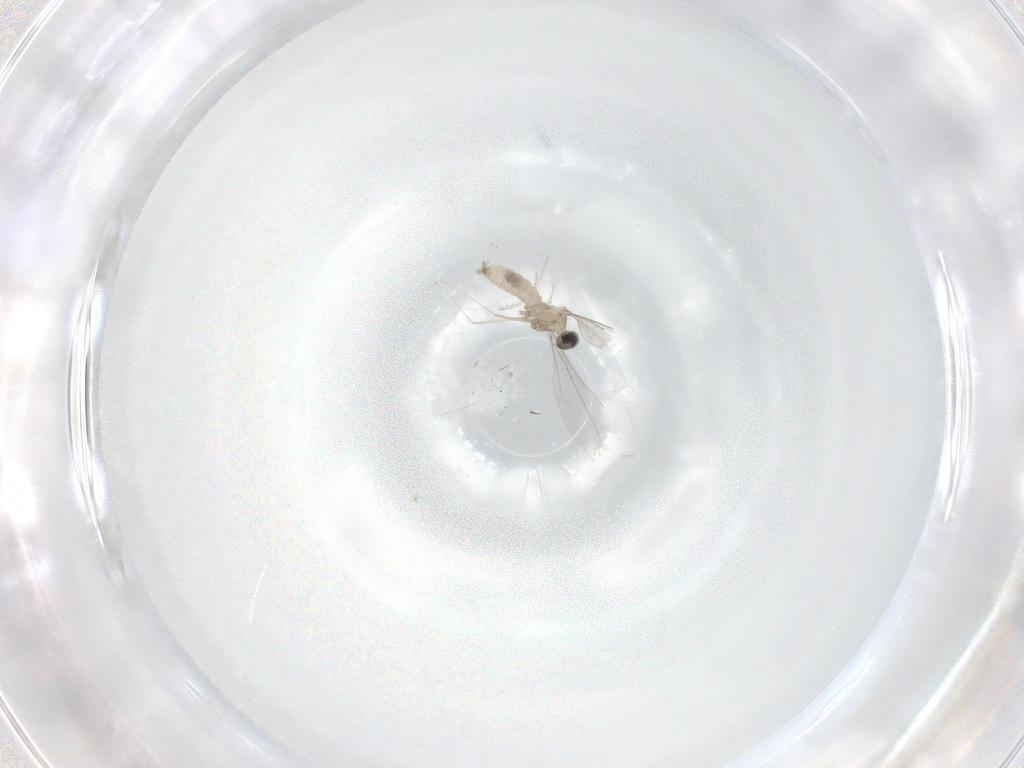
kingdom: Animalia
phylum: Arthropoda
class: Insecta
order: Diptera
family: Cecidomyiidae
